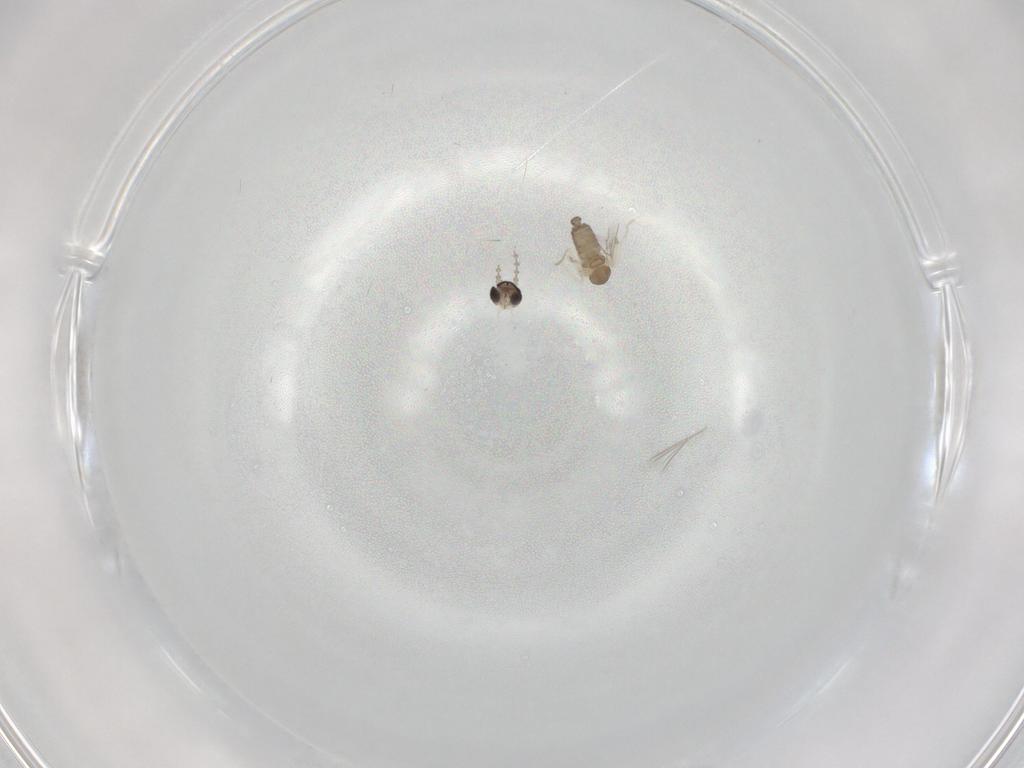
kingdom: Animalia
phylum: Arthropoda
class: Insecta
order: Diptera
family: Cecidomyiidae
